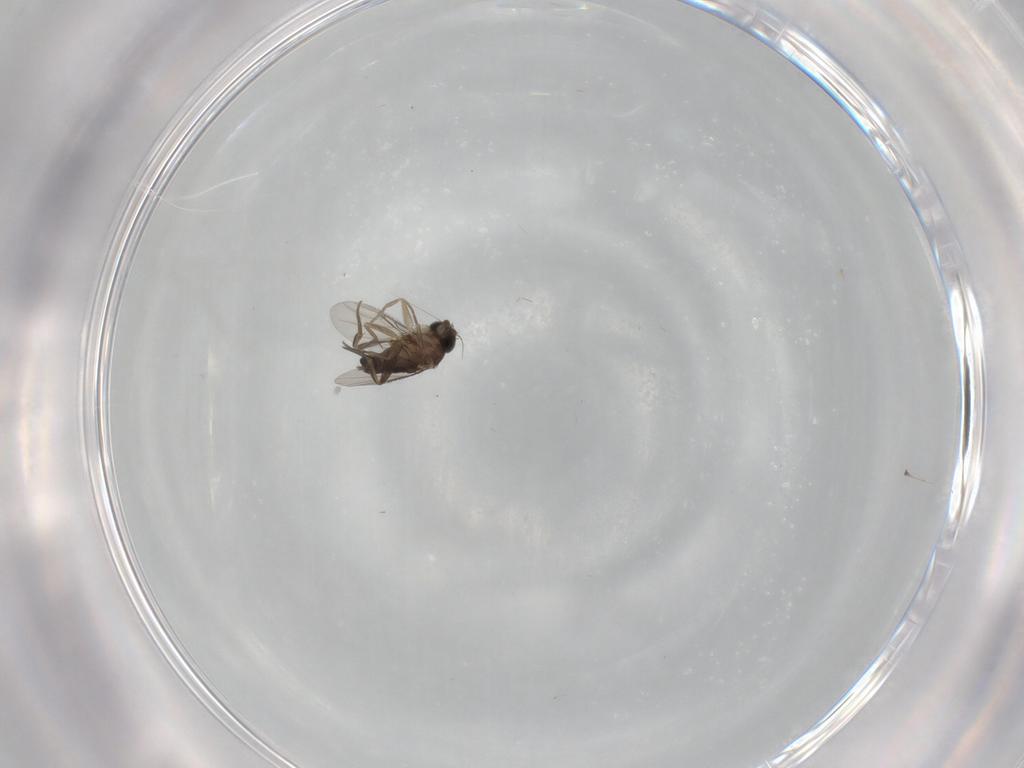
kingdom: Animalia
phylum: Arthropoda
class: Insecta
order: Diptera
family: Phoridae
